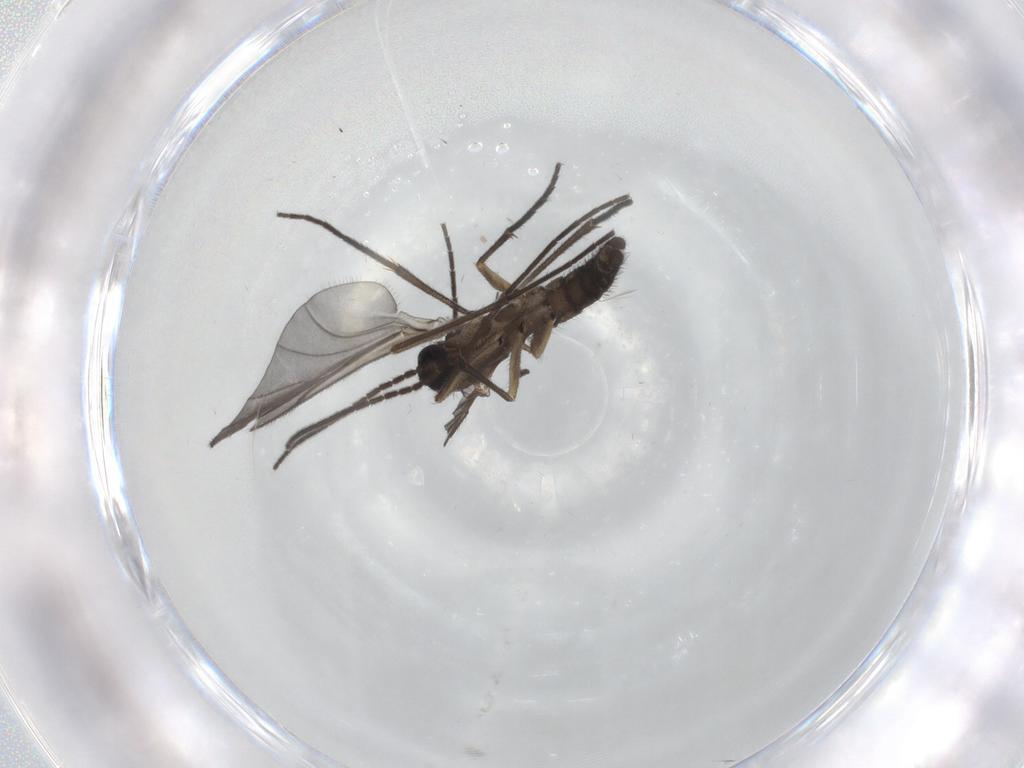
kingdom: Animalia
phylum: Arthropoda
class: Insecta
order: Diptera
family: Sciaridae
